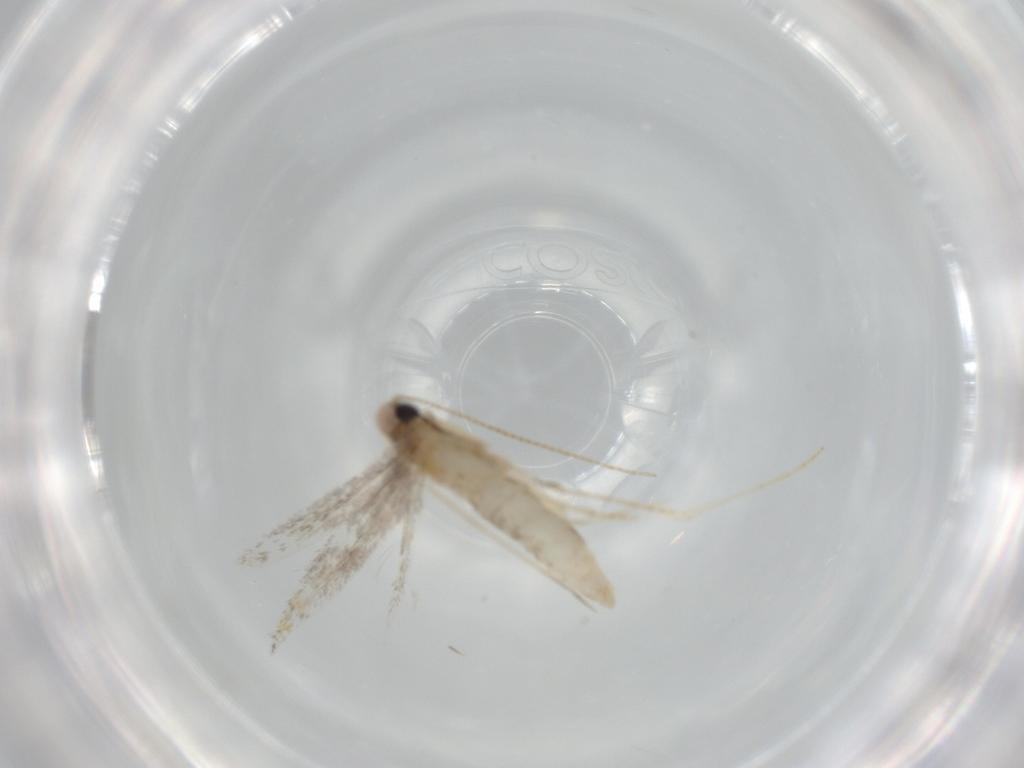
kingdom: Animalia
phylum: Arthropoda
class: Insecta
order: Lepidoptera
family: Gracillariidae
